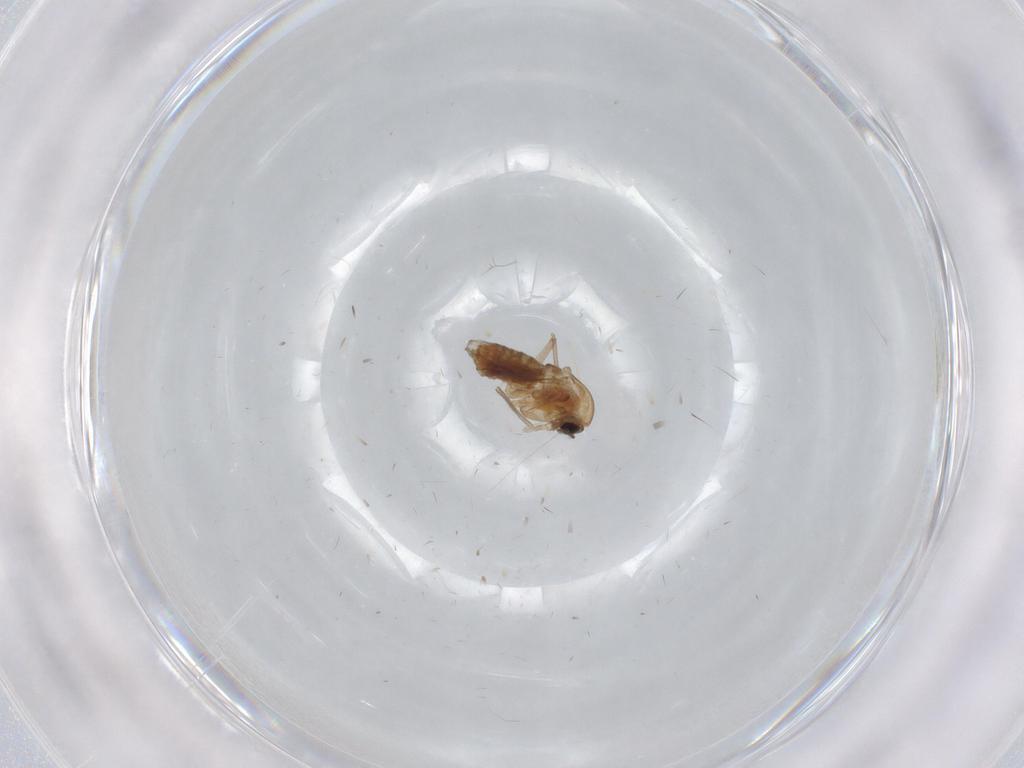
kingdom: Animalia
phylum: Arthropoda
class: Insecta
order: Diptera
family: Chironomidae
